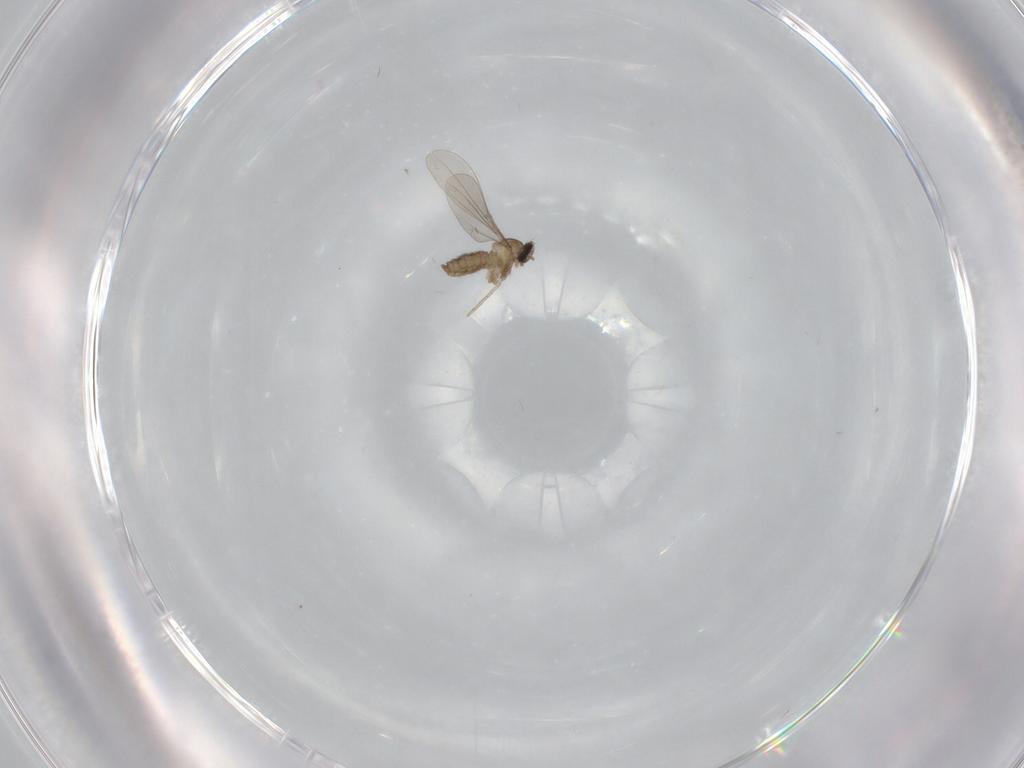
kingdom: Animalia
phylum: Arthropoda
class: Insecta
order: Diptera
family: Cecidomyiidae
